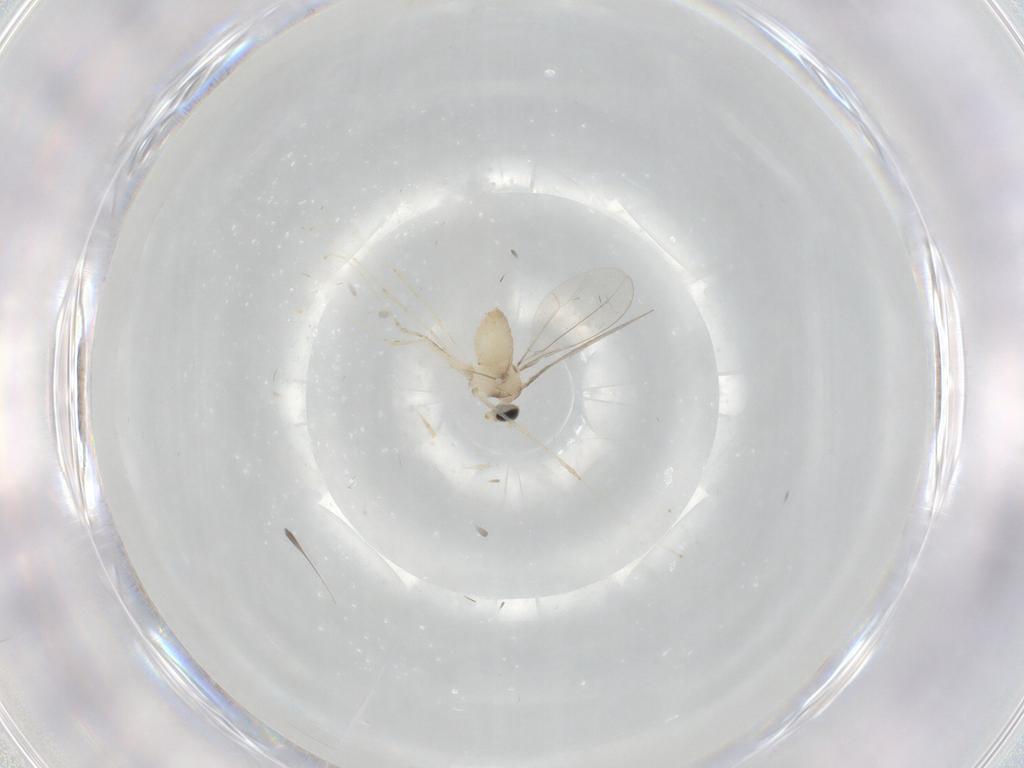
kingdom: Animalia
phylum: Arthropoda
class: Insecta
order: Diptera
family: Cecidomyiidae
